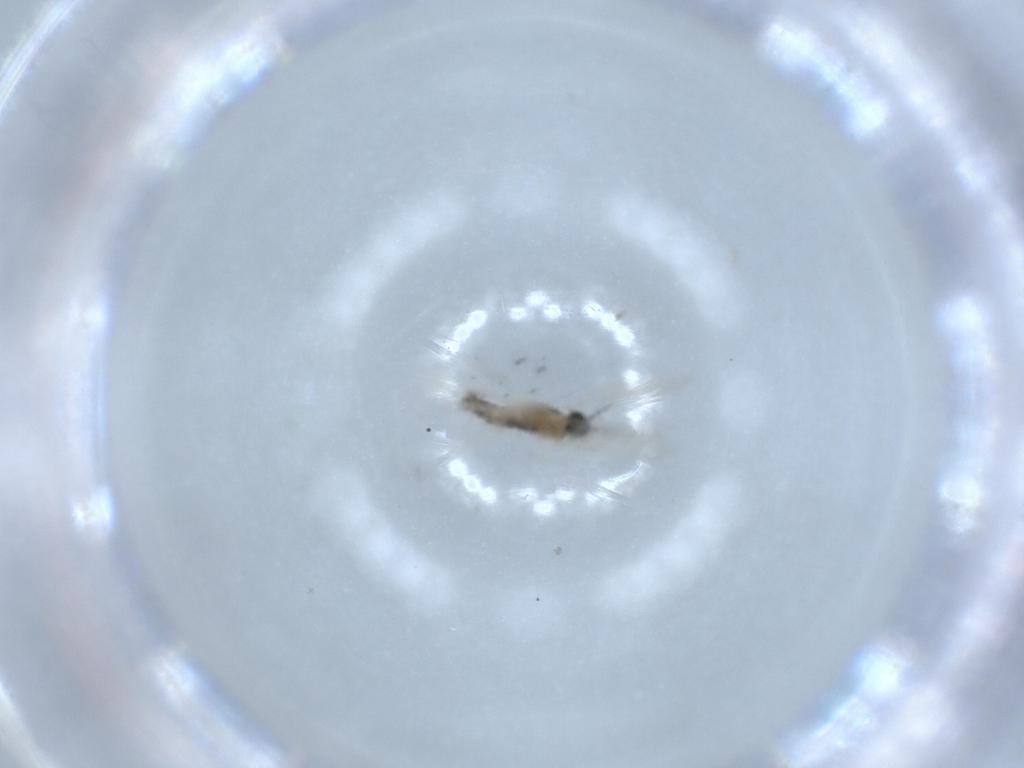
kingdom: Animalia
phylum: Arthropoda
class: Insecta
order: Diptera
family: Cecidomyiidae
